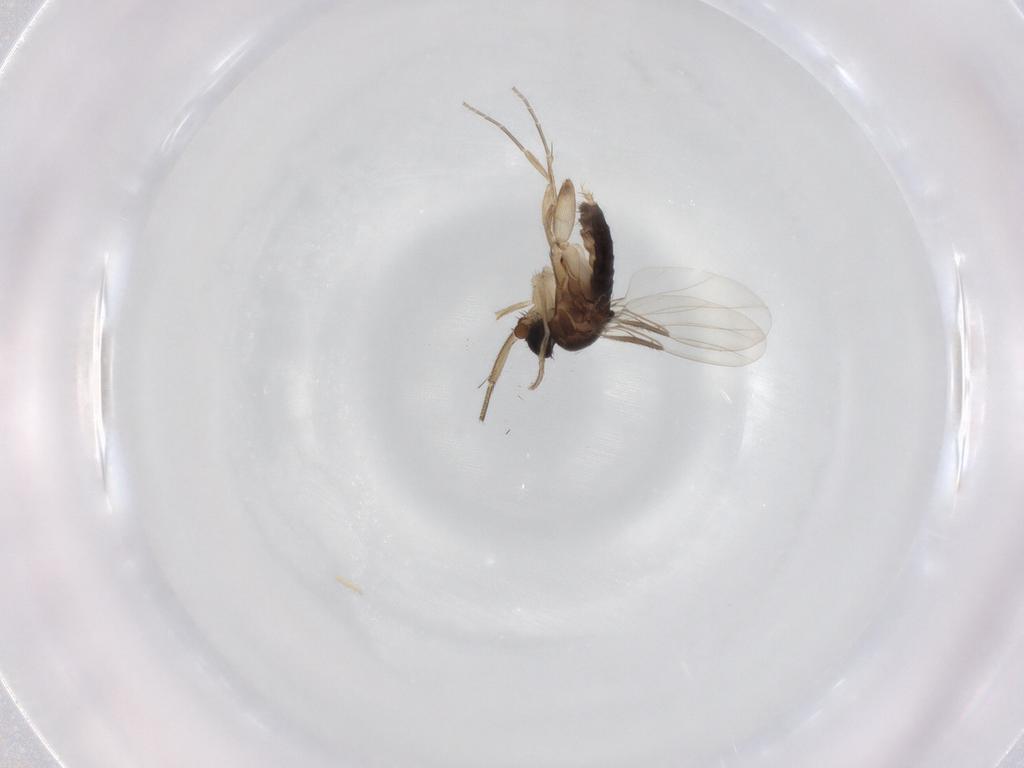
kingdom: Animalia
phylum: Arthropoda
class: Insecta
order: Diptera
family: Phoridae
